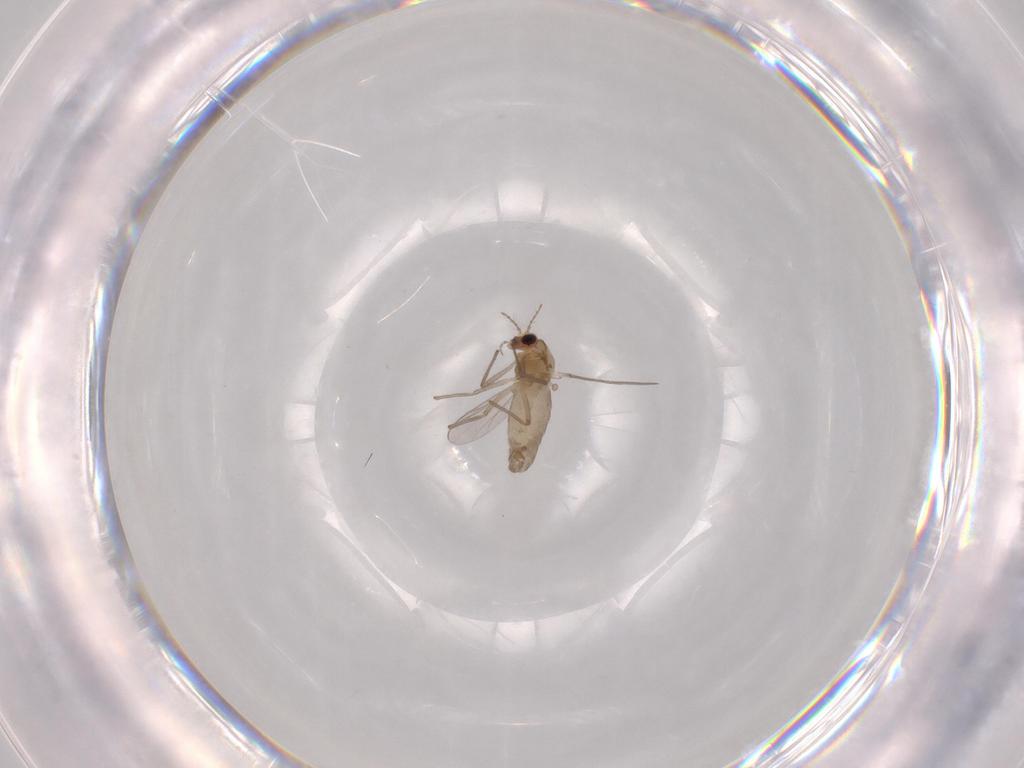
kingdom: Animalia
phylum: Arthropoda
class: Insecta
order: Diptera
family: Chironomidae
